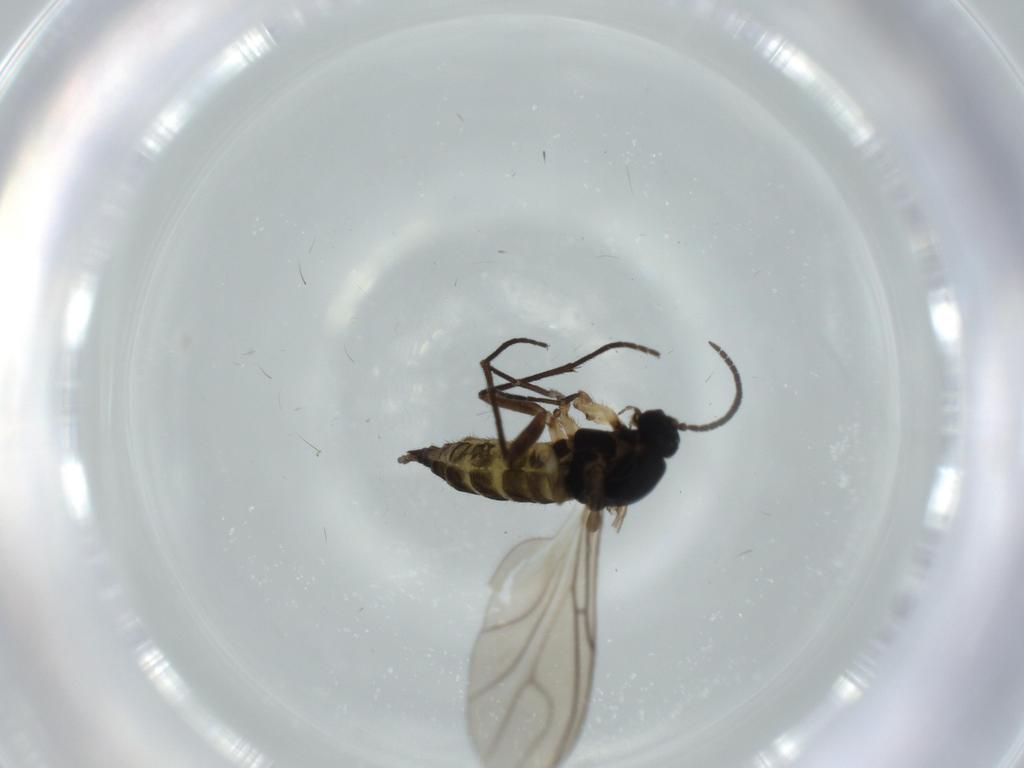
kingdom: Animalia
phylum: Arthropoda
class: Insecta
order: Diptera
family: Sciaridae
